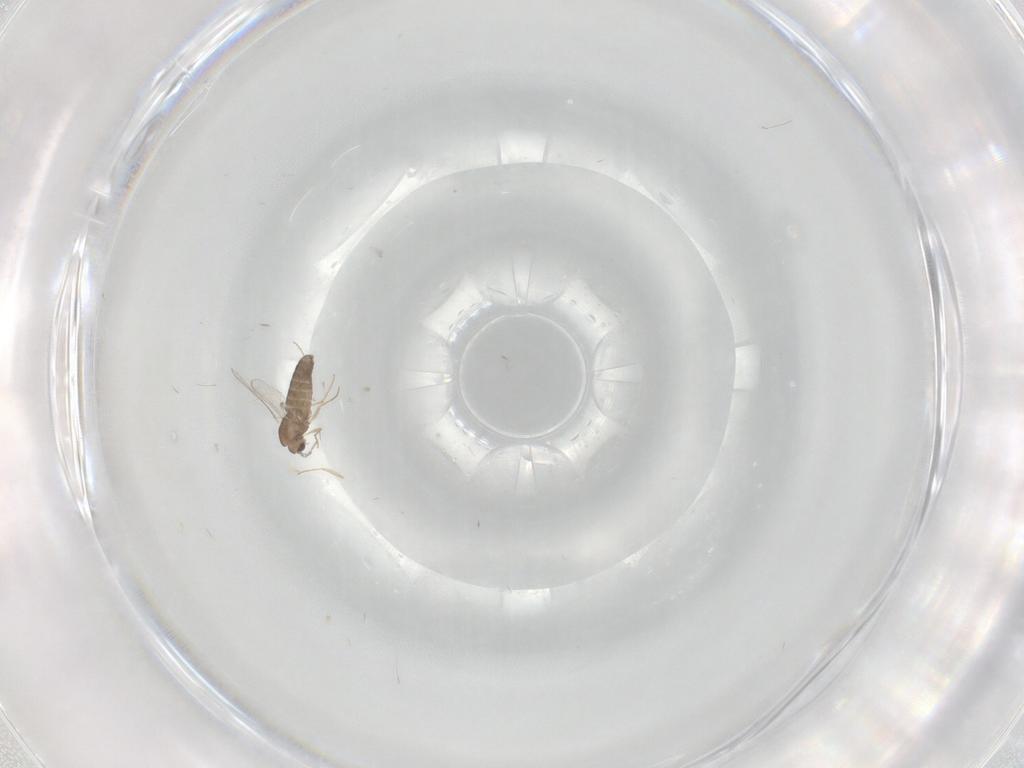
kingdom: Animalia
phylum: Arthropoda
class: Insecta
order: Diptera
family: Chironomidae
